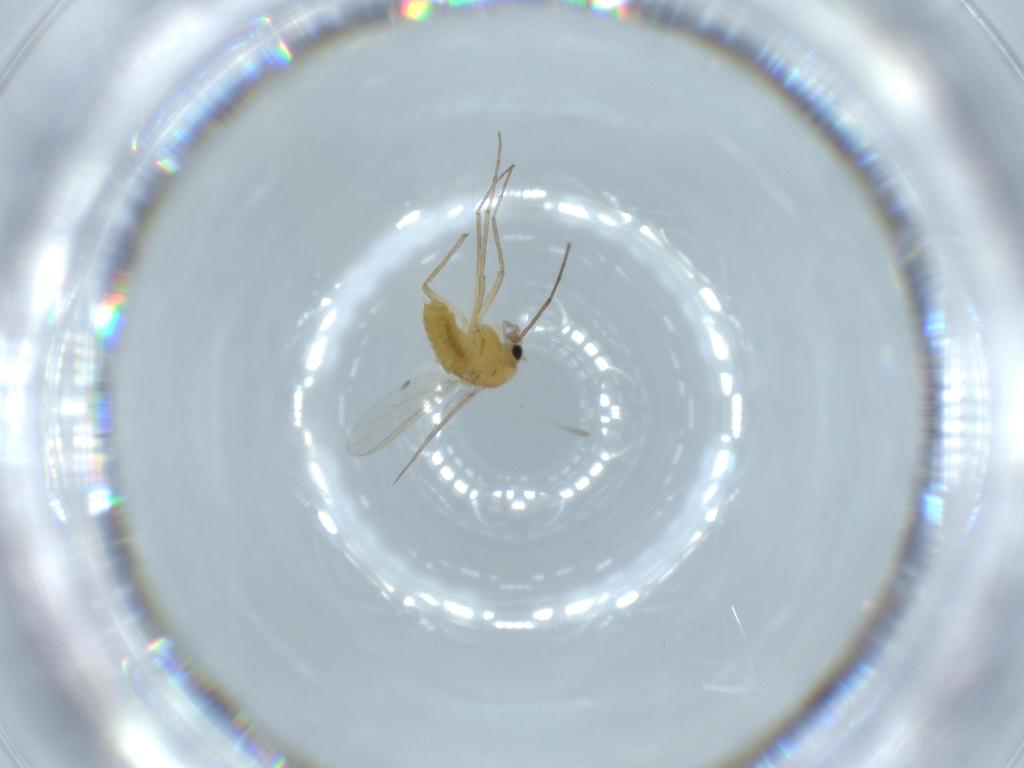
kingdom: Animalia
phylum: Arthropoda
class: Insecta
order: Diptera
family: Chironomidae
